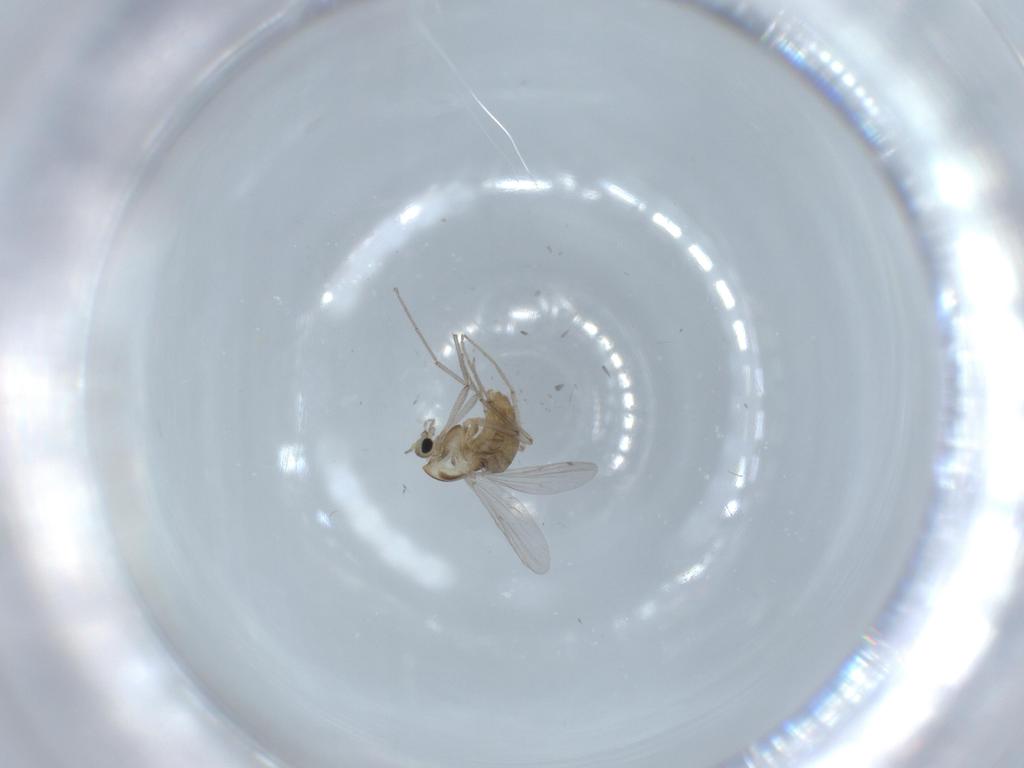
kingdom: Animalia
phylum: Arthropoda
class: Insecta
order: Diptera
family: Chironomidae
